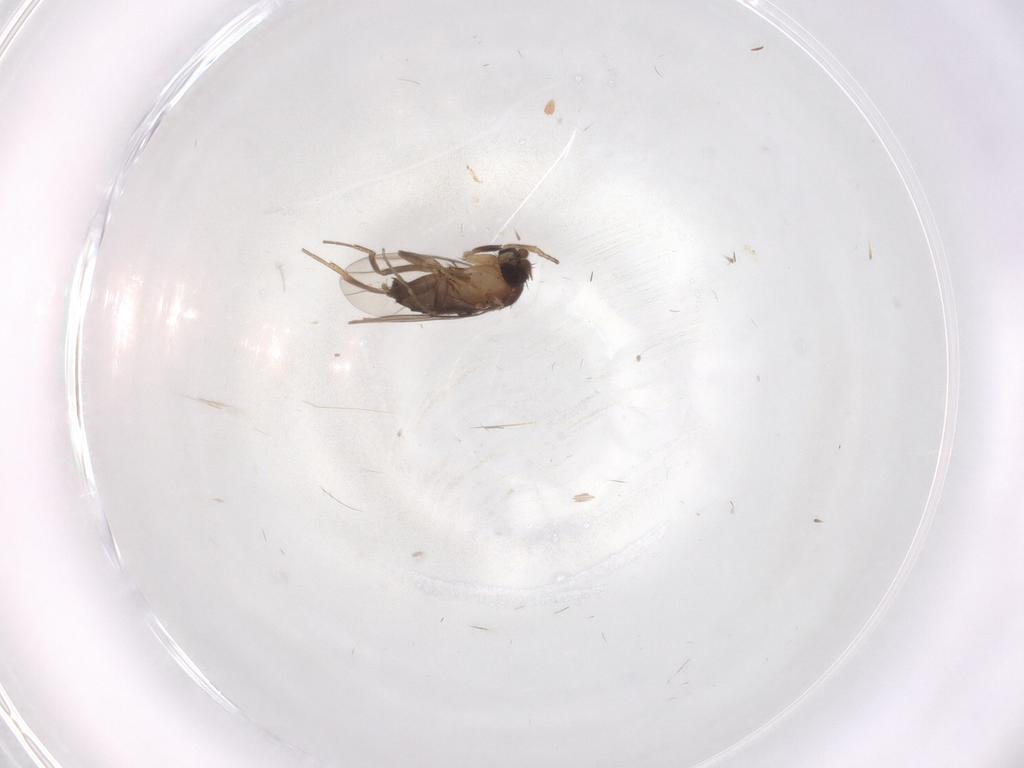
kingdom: Animalia
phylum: Arthropoda
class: Insecta
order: Diptera
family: Phoridae
